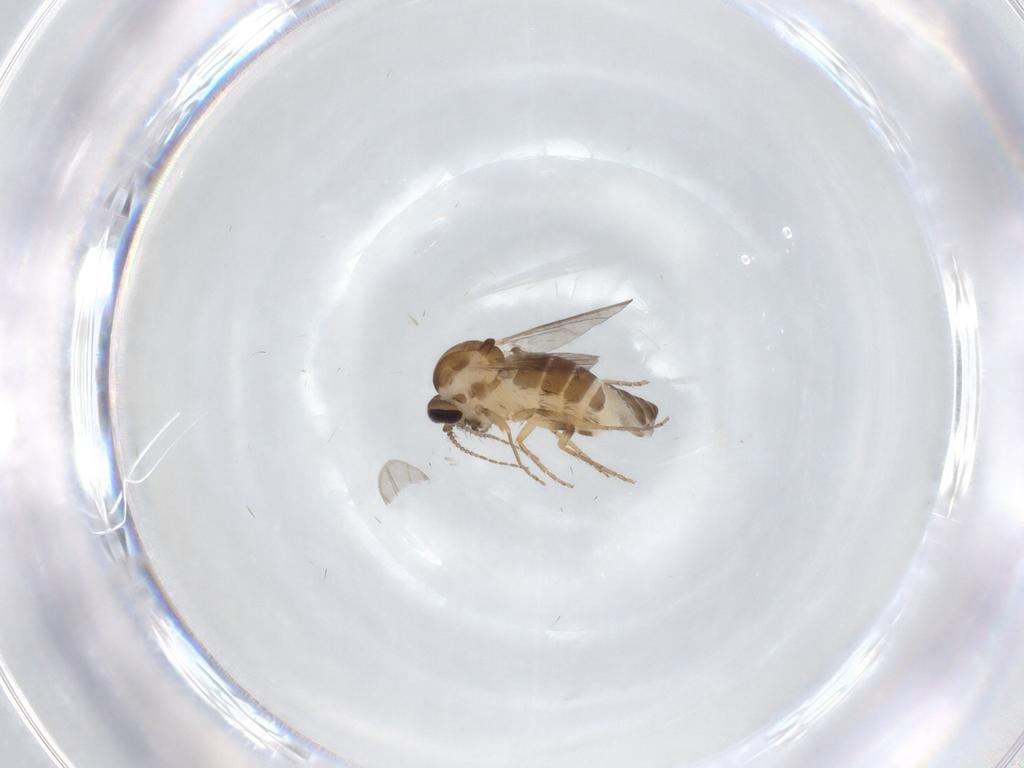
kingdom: Animalia
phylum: Arthropoda
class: Insecta
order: Diptera
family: Ceratopogonidae
